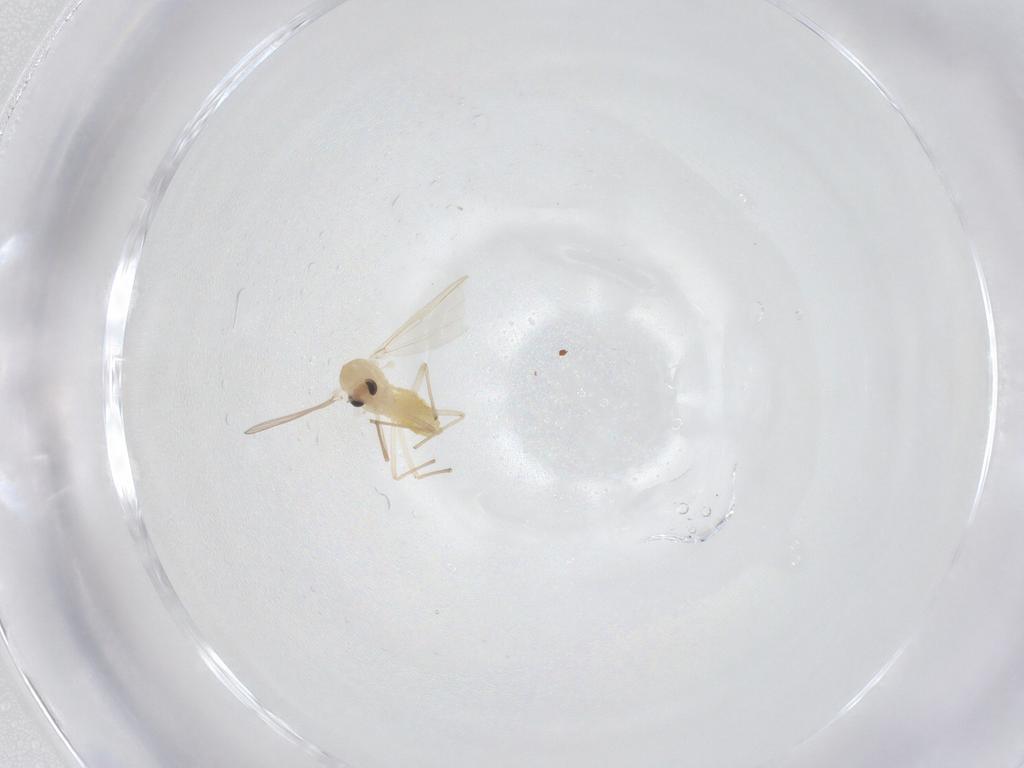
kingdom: Animalia
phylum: Arthropoda
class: Insecta
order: Diptera
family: Chironomidae
